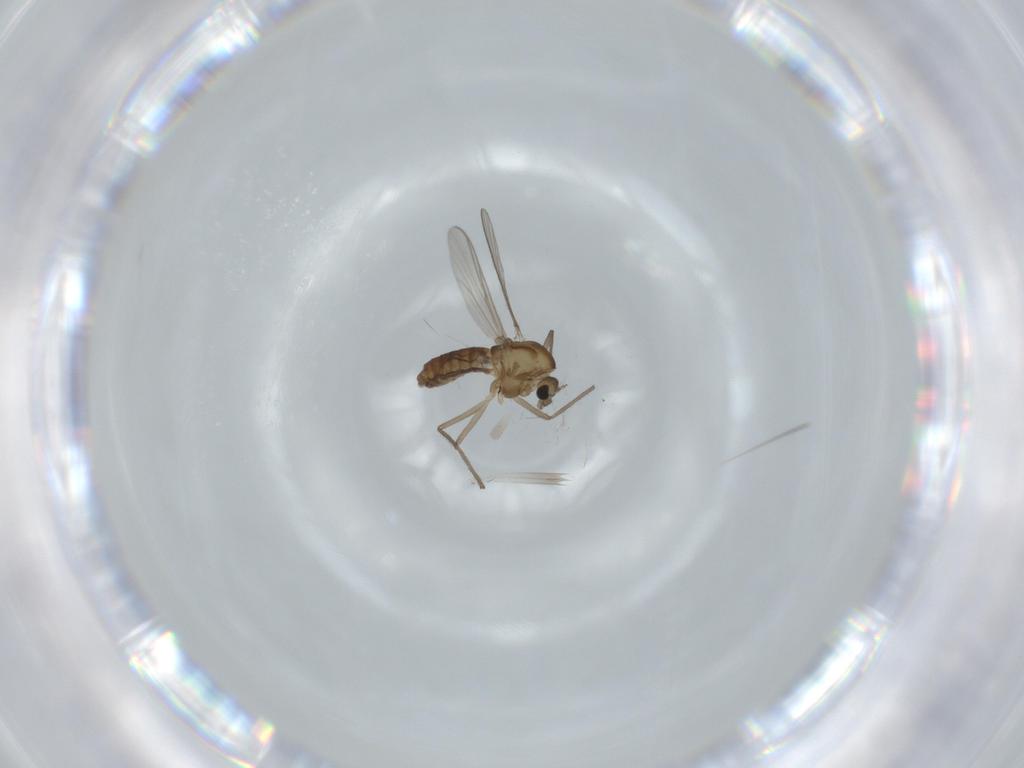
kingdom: Animalia
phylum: Arthropoda
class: Insecta
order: Diptera
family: Chironomidae
